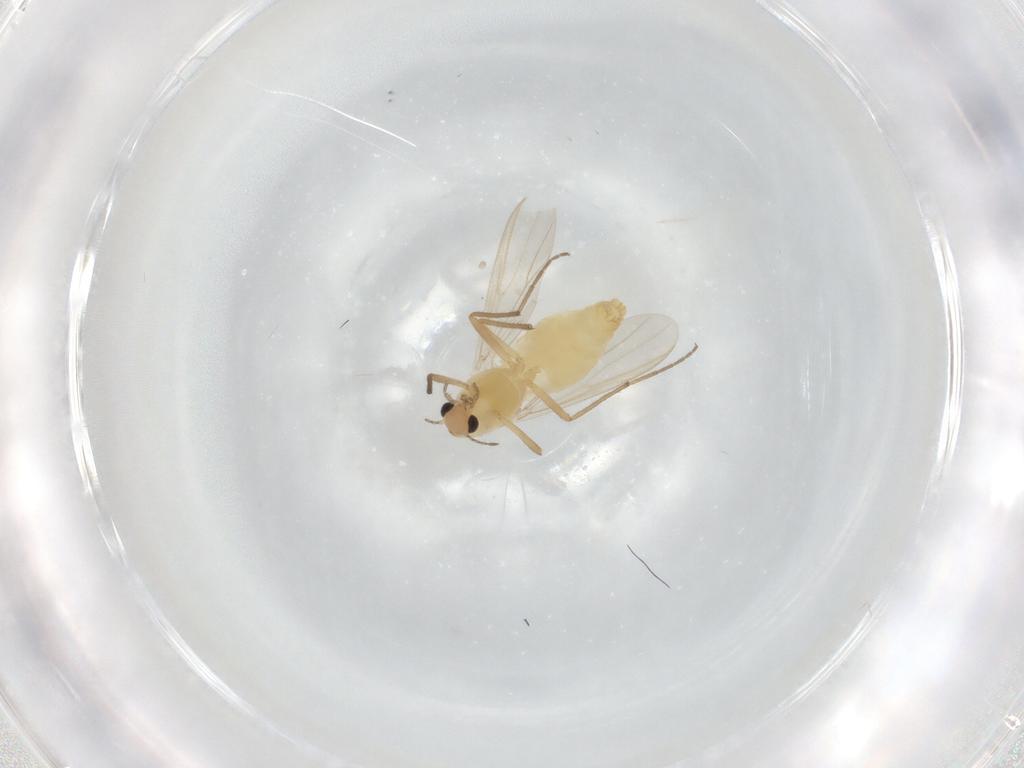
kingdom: Animalia
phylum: Arthropoda
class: Insecta
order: Diptera
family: Chironomidae
